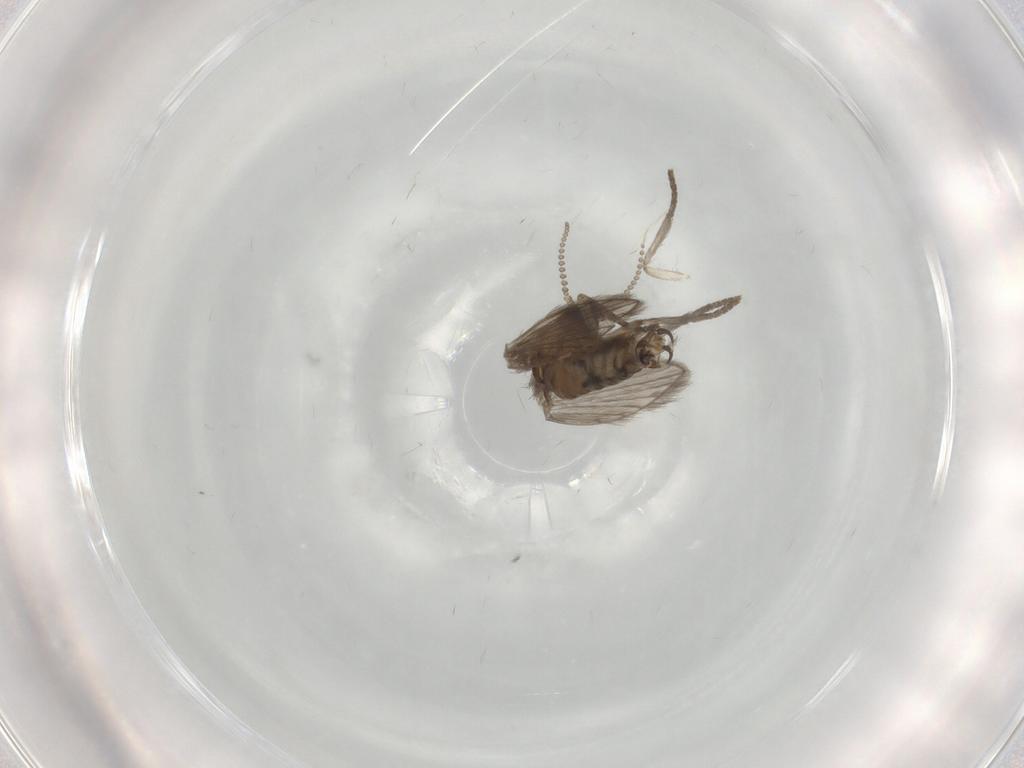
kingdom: Animalia
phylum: Arthropoda
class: Insecta
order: Diptera
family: Psychodidae
